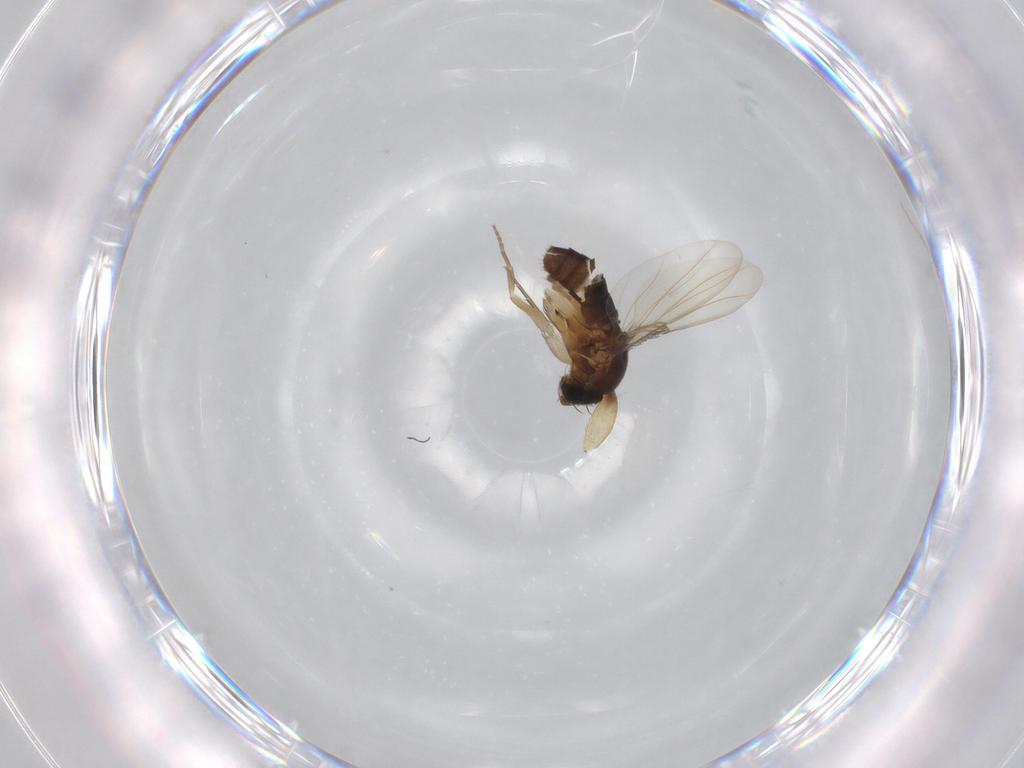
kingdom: Animalia
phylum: Arthropoda
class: Insecta
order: Diptera
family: Phoridae
